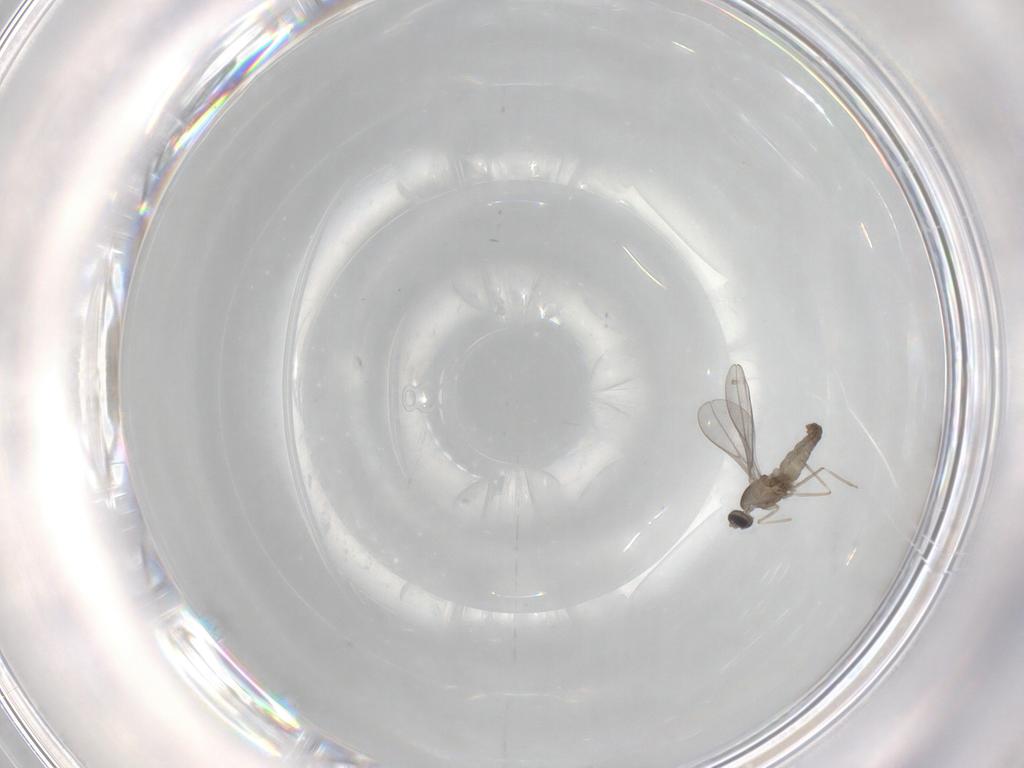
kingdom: Animalia
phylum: Arthropoda
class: Insecta
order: Diptera
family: Cecidomyiidae
